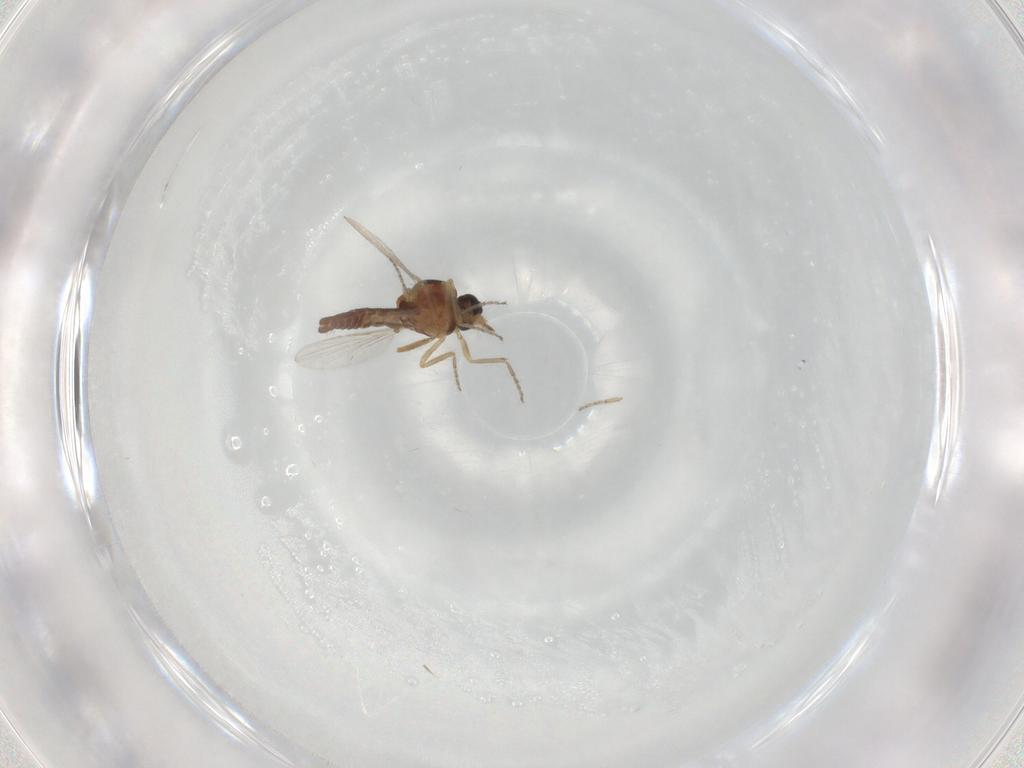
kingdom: Animalia
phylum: Arthropoda
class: Insecta
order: Diptera
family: Ceratopogonidae
